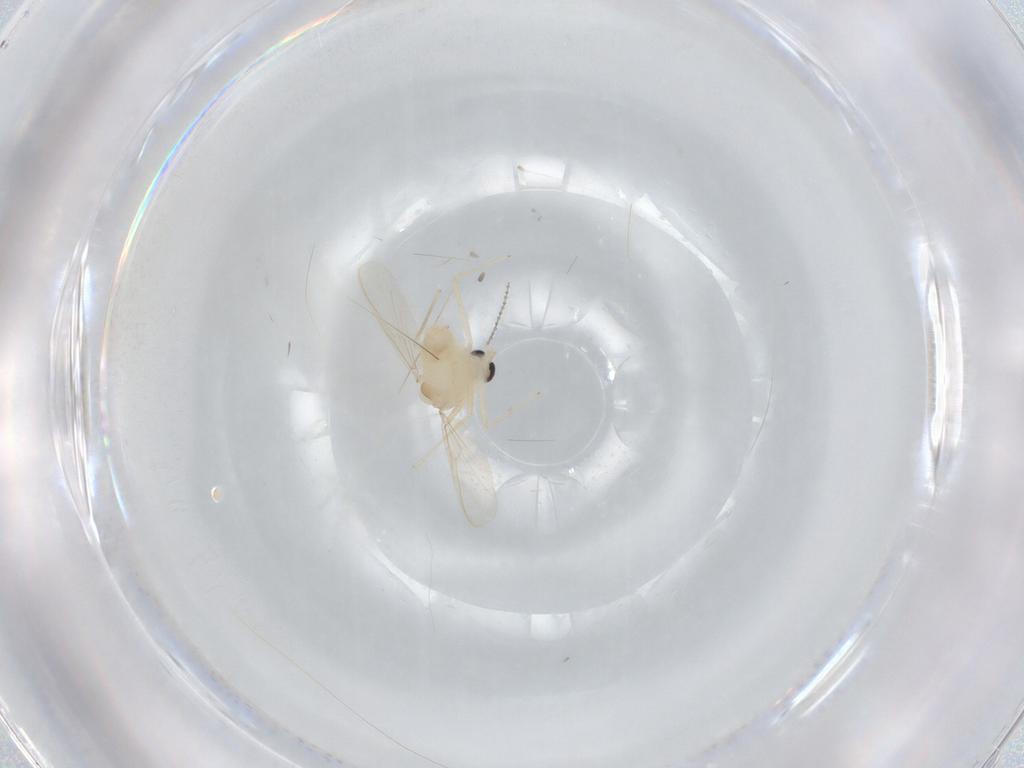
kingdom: Animalia
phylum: Arthropoda
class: Insecta
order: Diptera
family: Chironomidae
